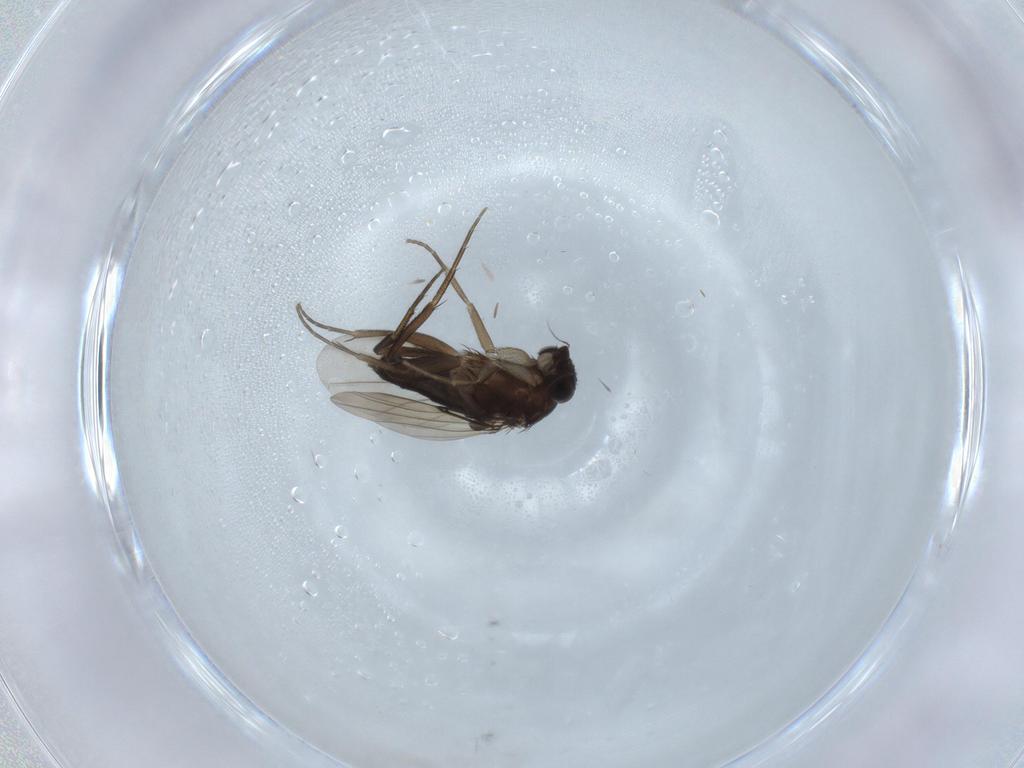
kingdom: Animalia
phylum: Arthropoda
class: Insecta
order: Diptera
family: Phoridae
